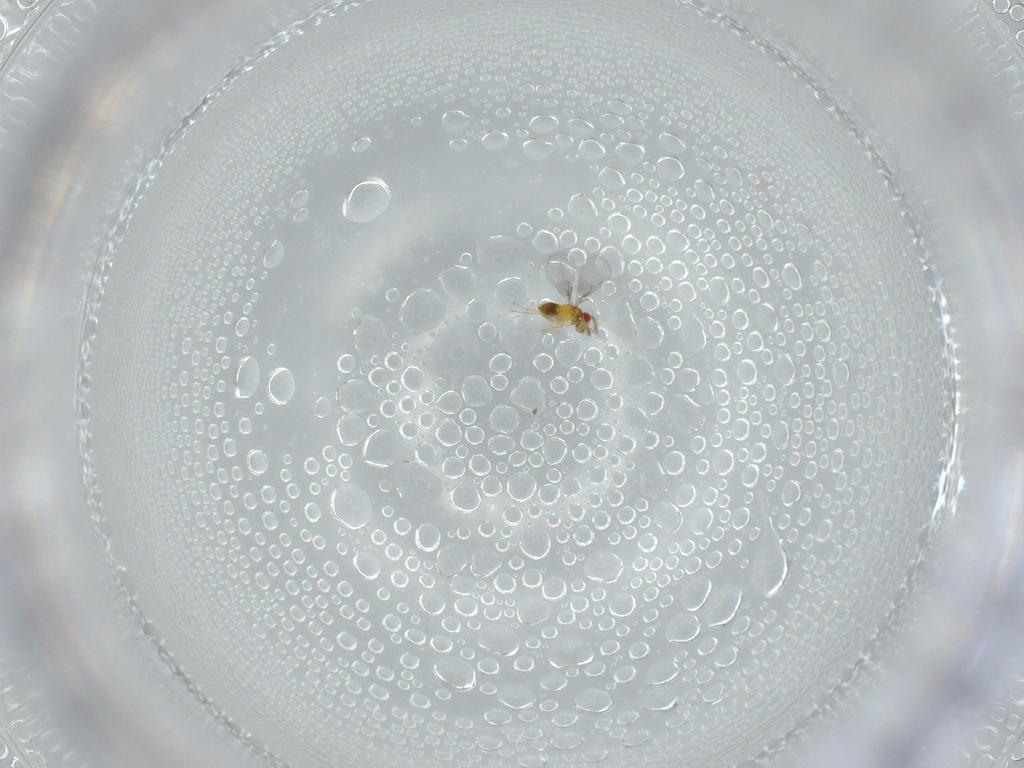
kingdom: Animalia
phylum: Arthropoda
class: Insecta
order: Hymenoptera
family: Trichogrammatidae
